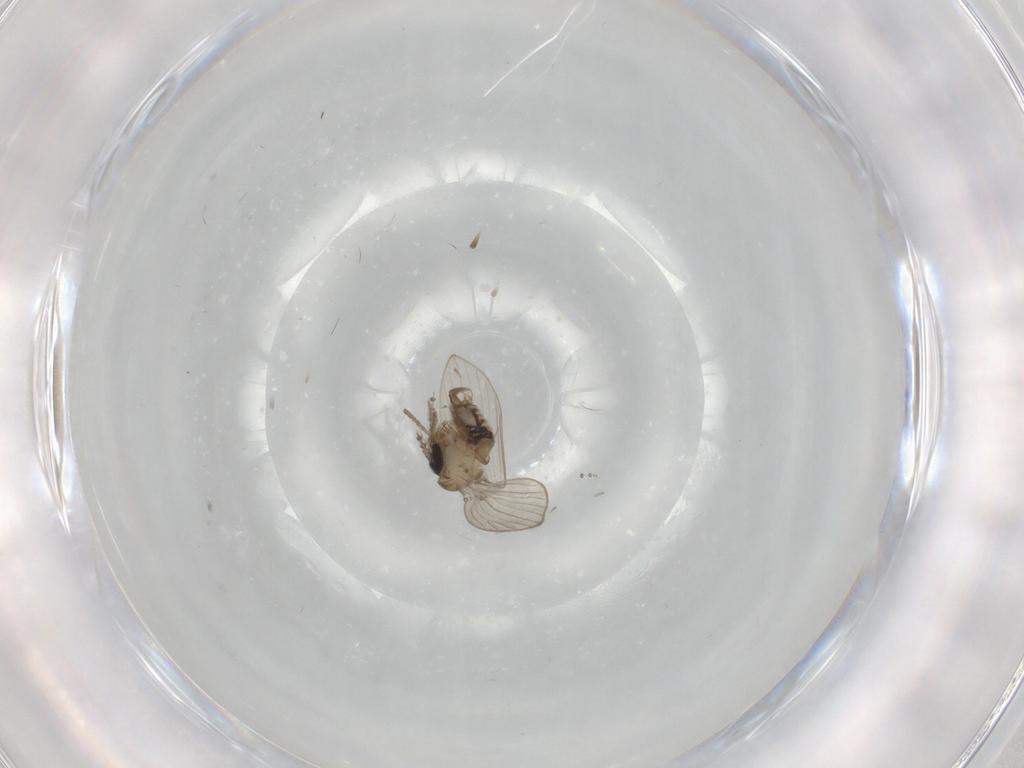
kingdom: Animalia
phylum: Arthropoda
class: Insecta
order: Diptera
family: Psychodidae
